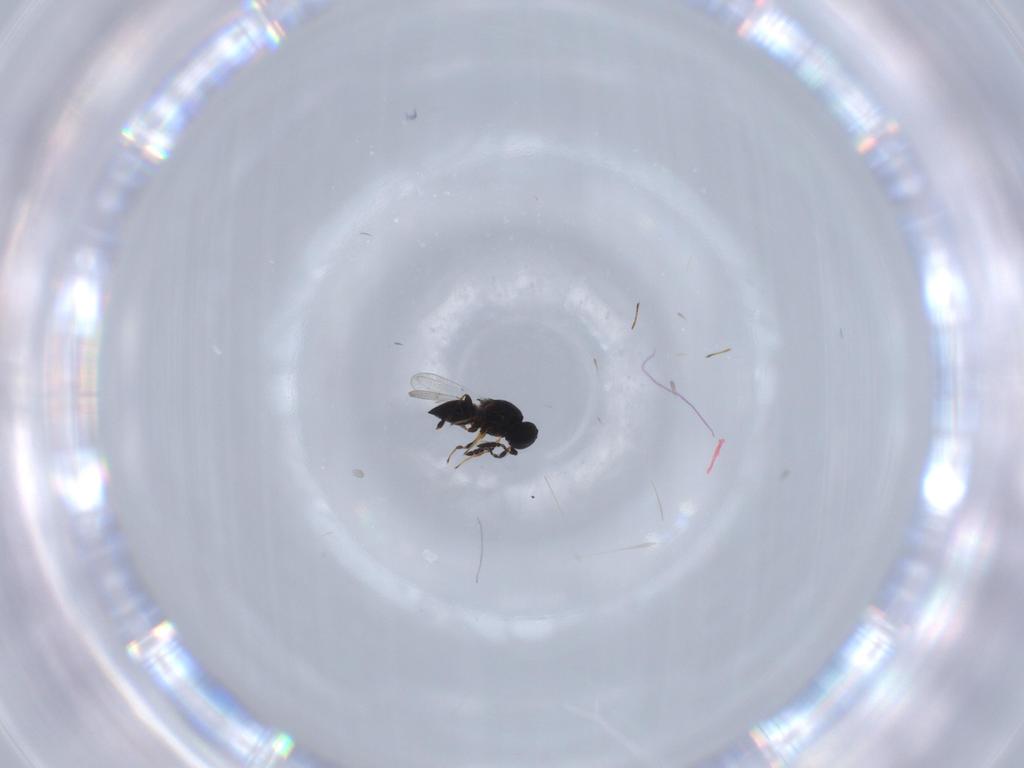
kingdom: Animalia
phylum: Arthropoda
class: Insecta
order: Hymenoptera
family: Platygastridae
